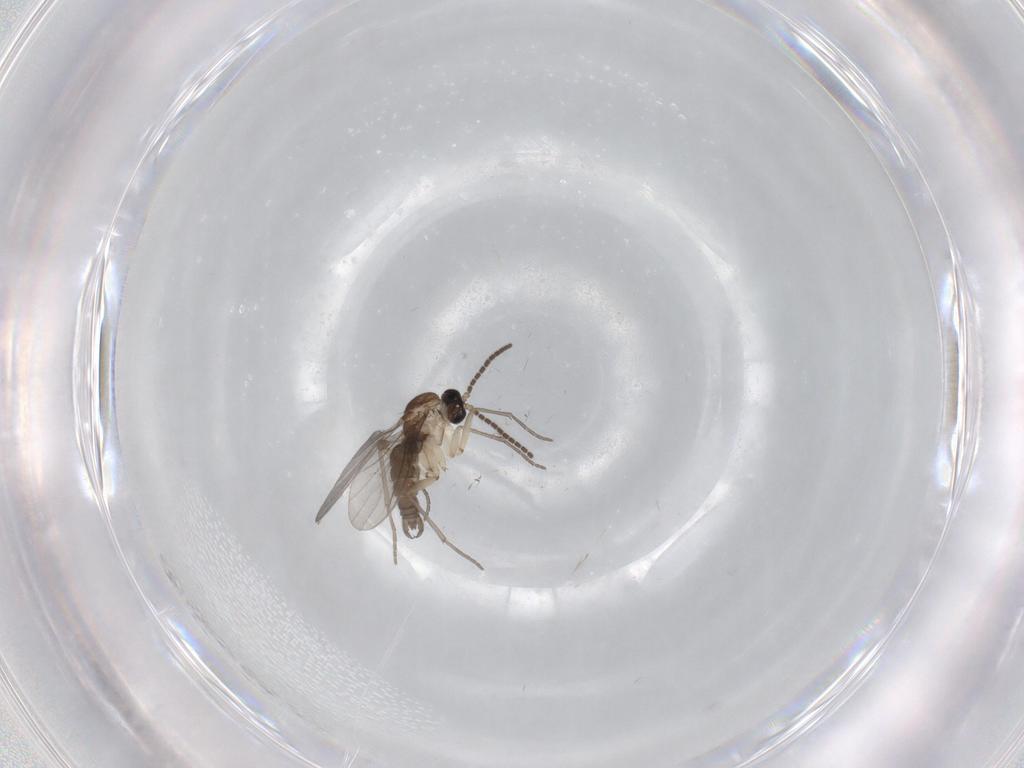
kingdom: Animalia
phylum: Arthropoda
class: Insecta
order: Diptera
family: Sciaridae
